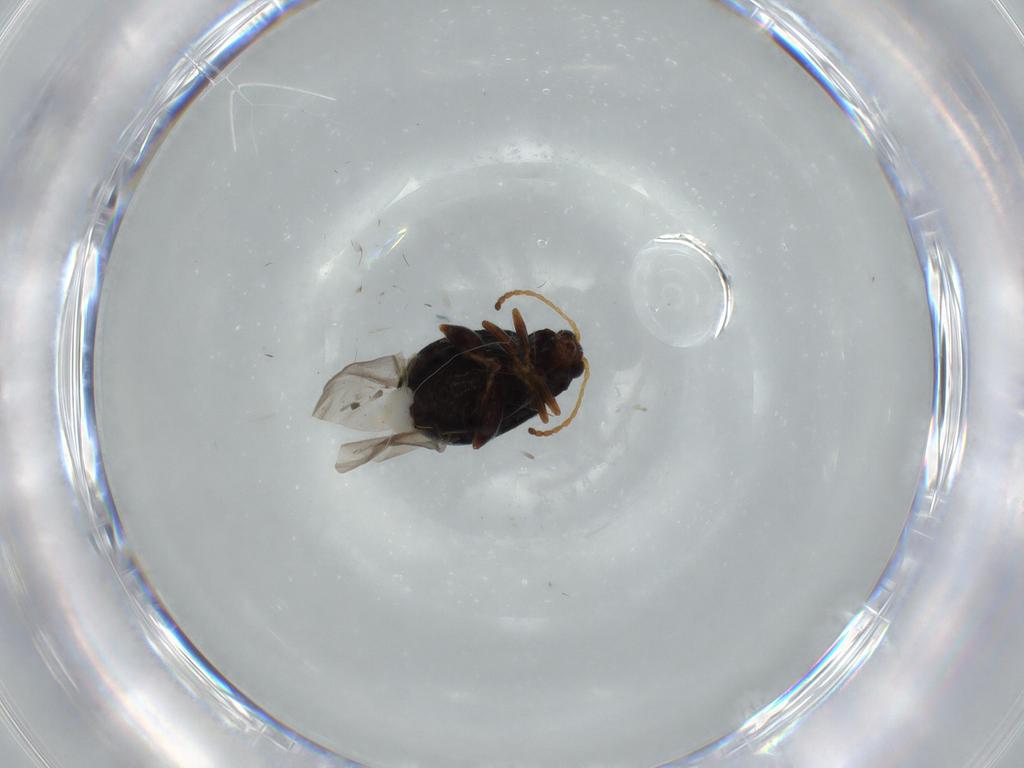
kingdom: Animalia
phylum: Arthropoda
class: Insecta
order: Coleoptera
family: Chrysomelidae
